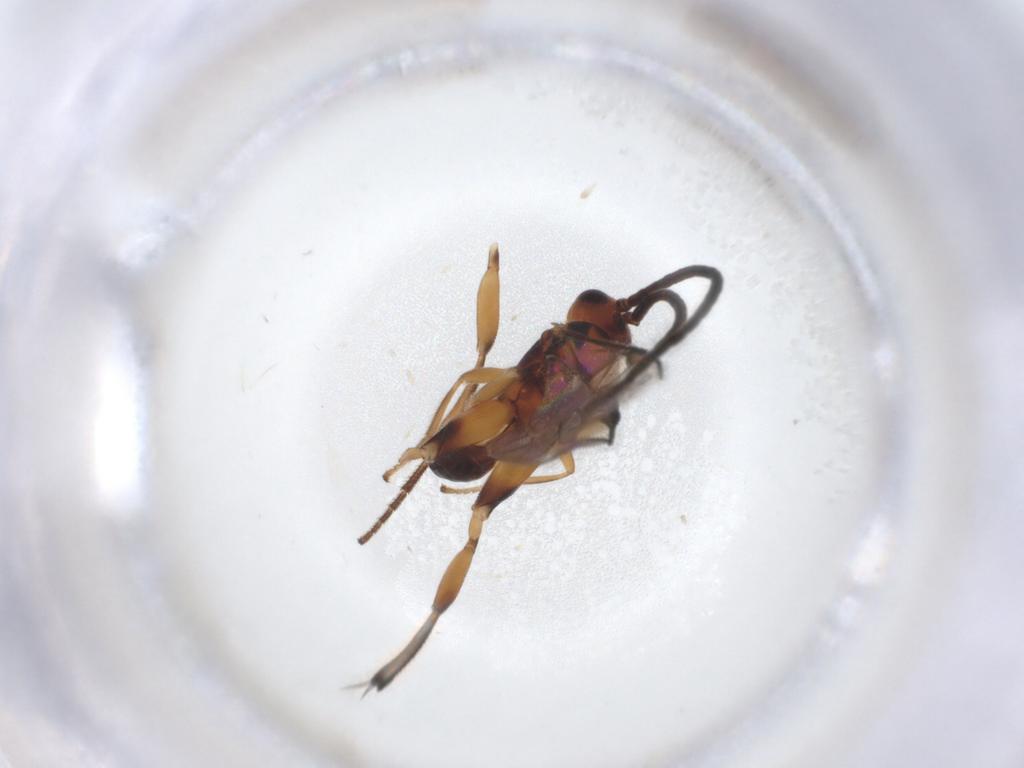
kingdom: Animalia
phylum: Arthropoda
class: Insecta
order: Hymenoptera
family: Braconidae
